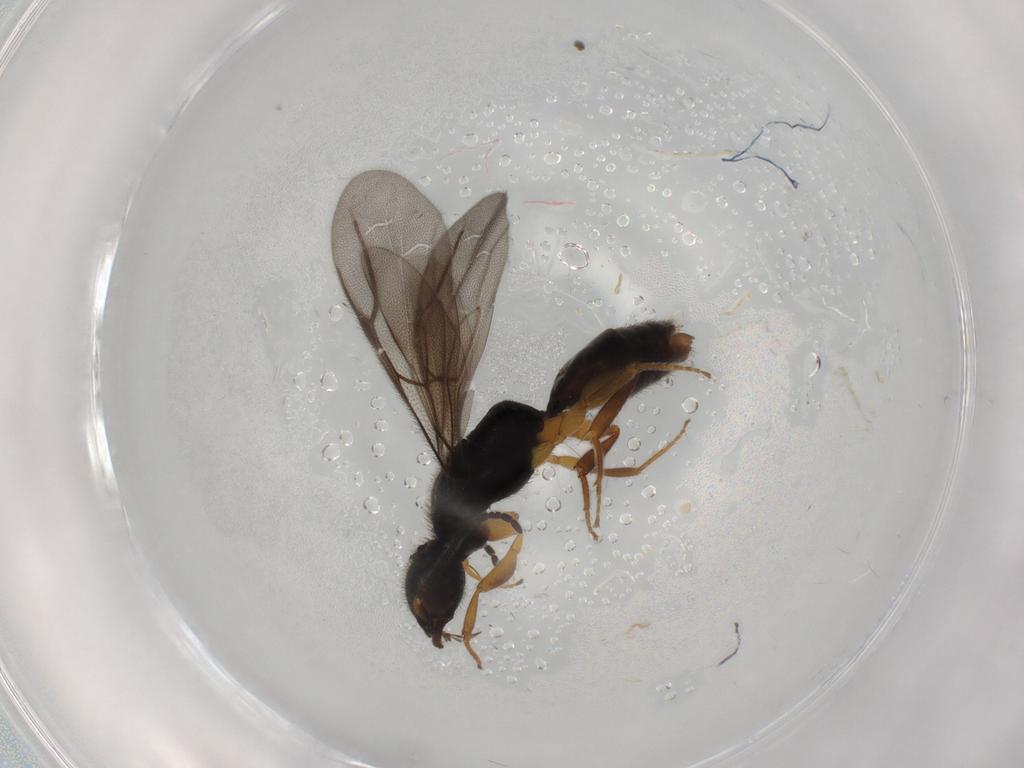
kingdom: Animalia
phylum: Arthropoda
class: Insecta
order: Hymenoptera
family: Bethylidae
